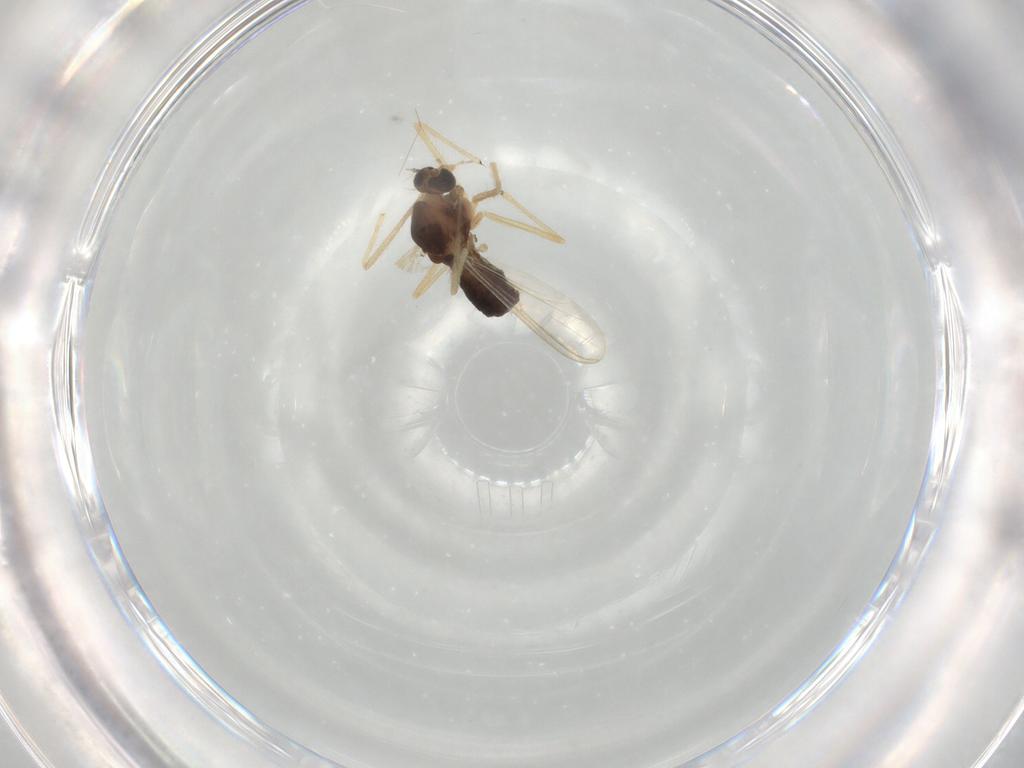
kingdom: Animalia
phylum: Arthropoda
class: Insecta
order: Diptera
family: Chironomidae
